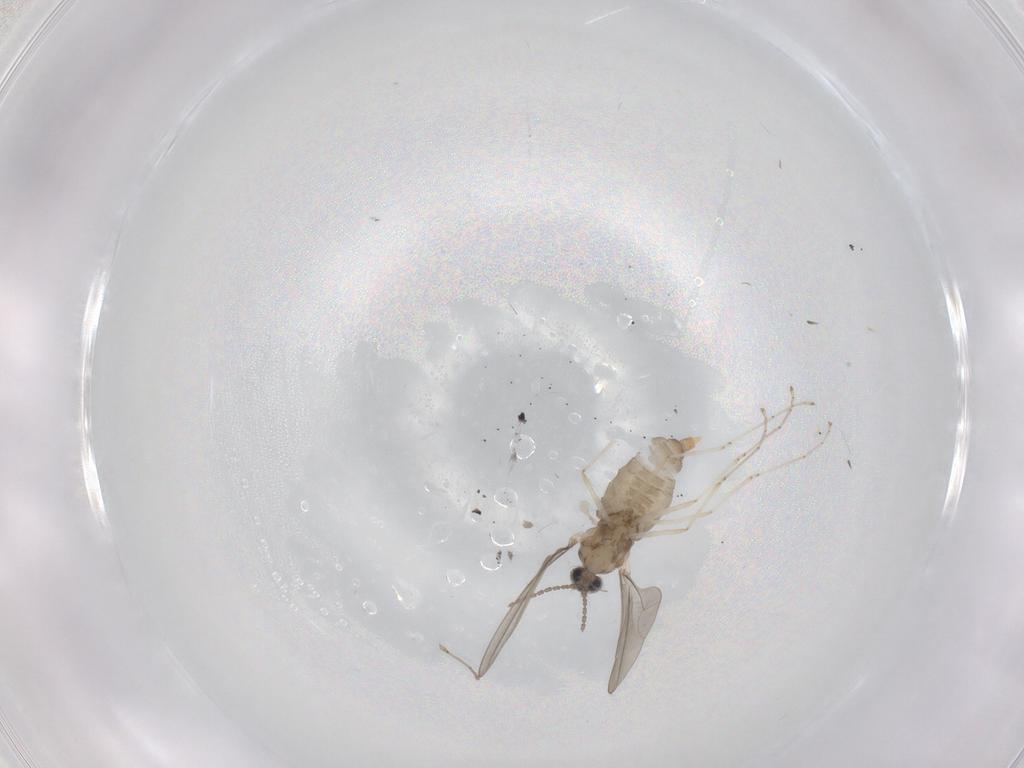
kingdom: Animalia
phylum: Arthropoda
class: Insecta
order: Diptera
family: Cecidomyiidae
